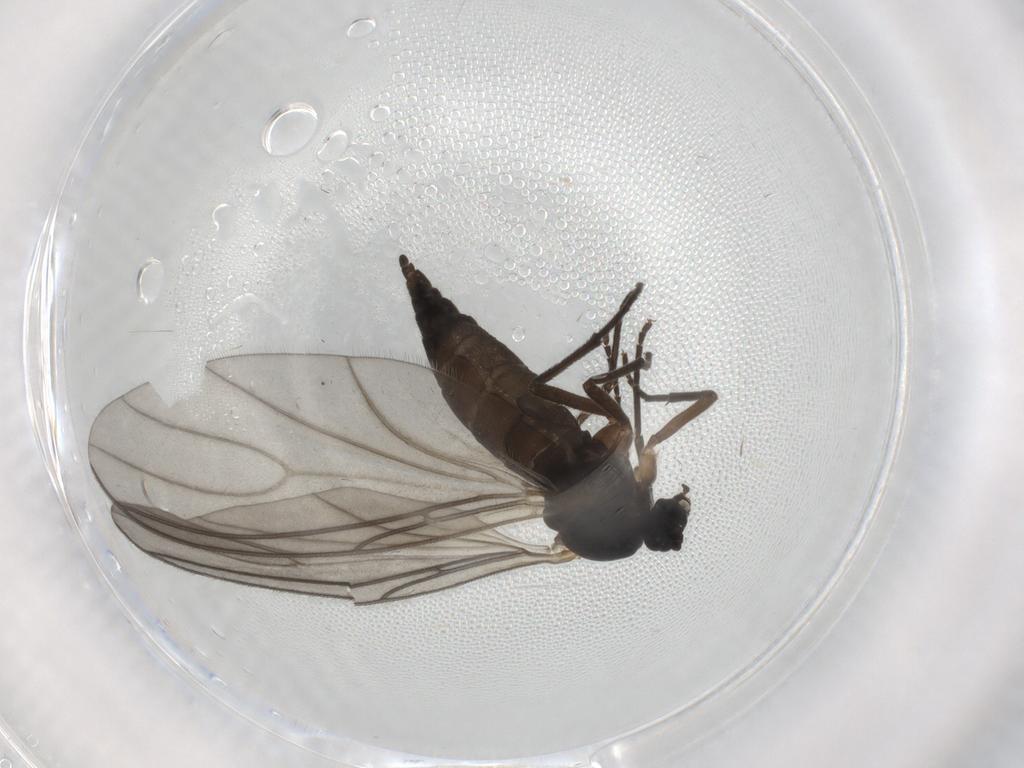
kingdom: Animalia
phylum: Arthropoda
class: Insecta
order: Diptera
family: Sciaridae
